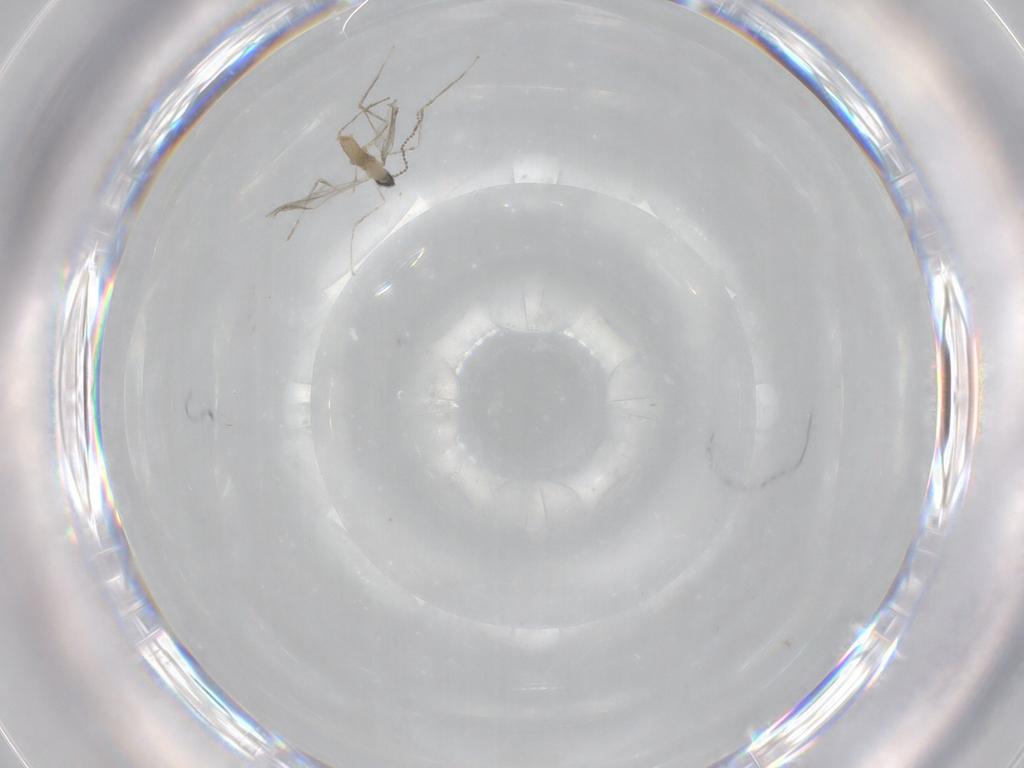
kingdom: Animalia
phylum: Arthropoda
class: Insecta
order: Diptera
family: Cecidomyiidae
